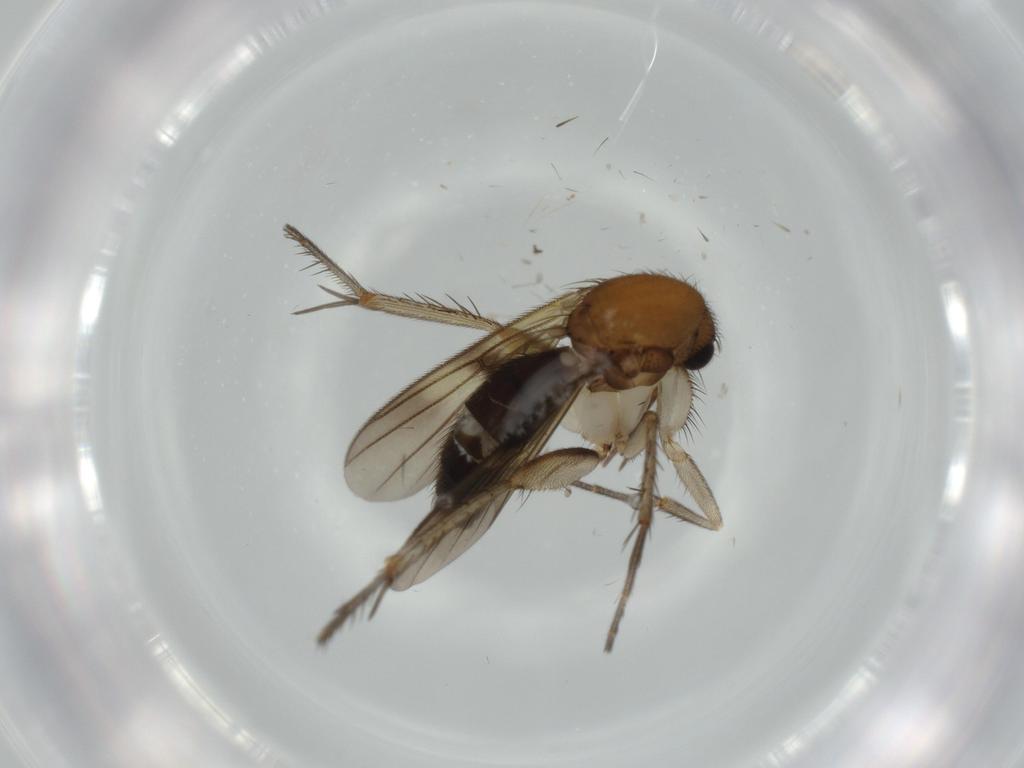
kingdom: Animalia
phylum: Arthropoda
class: Insecta
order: Diptera
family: Cecidomyiidae
